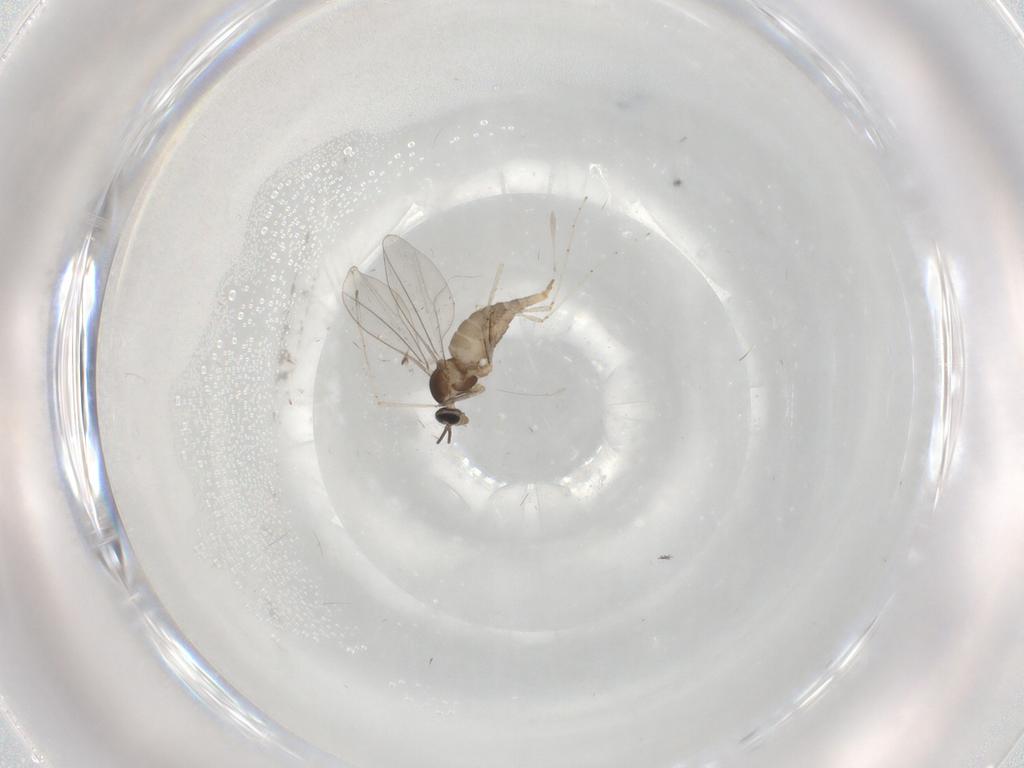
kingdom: Animalia
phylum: Arthropoda
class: Insecta
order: Diptera
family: Cecidomyiidae
